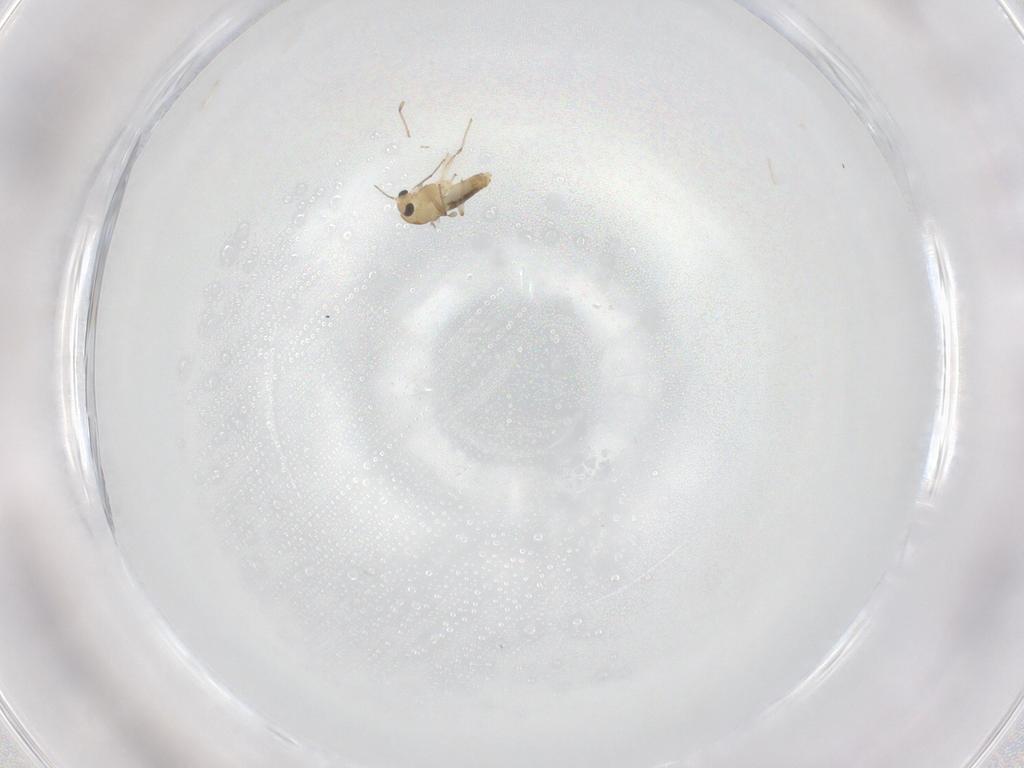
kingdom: Animalia
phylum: Arthropoda
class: Insecta
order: Diptera
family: Chironomidae
